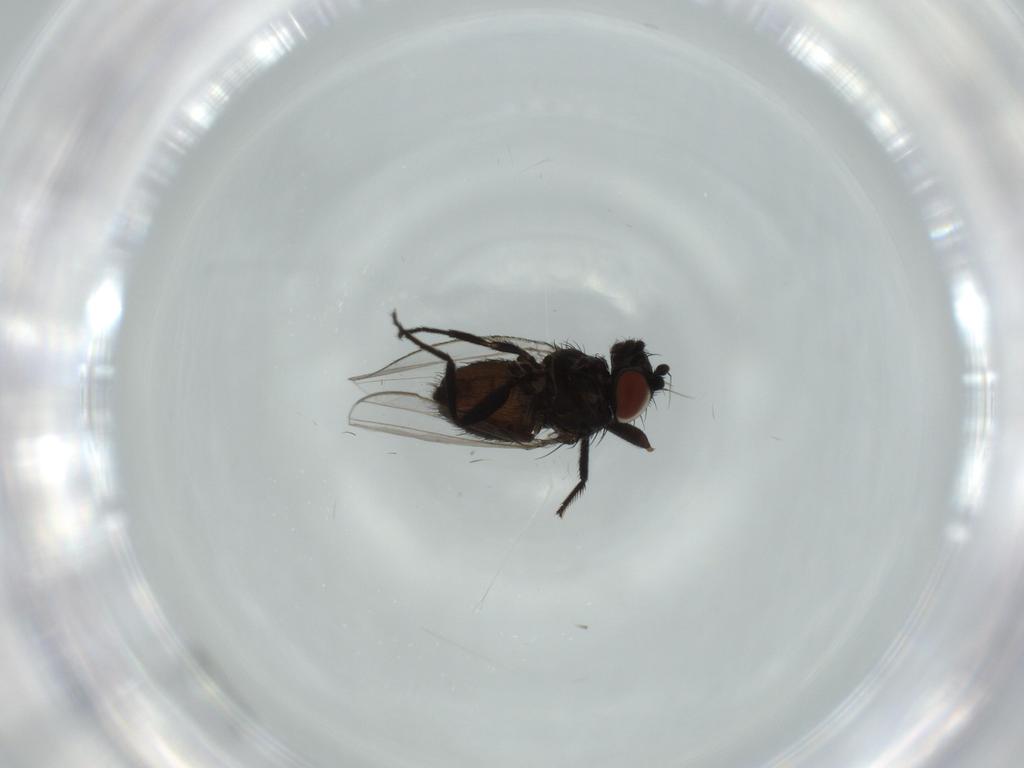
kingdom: Animalia
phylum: Arthropoda
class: Insecta
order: Diptera
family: Milichiidae
